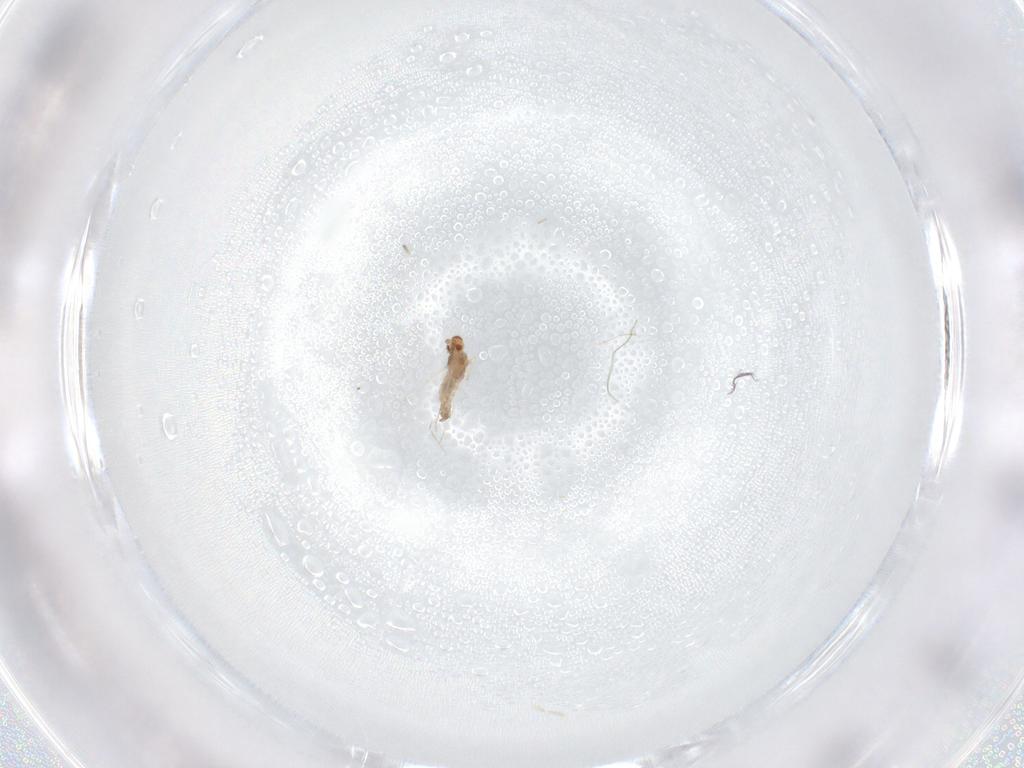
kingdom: Animalia
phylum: Arthropoda
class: Insecta
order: Diptera
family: Cecidomyiidae
